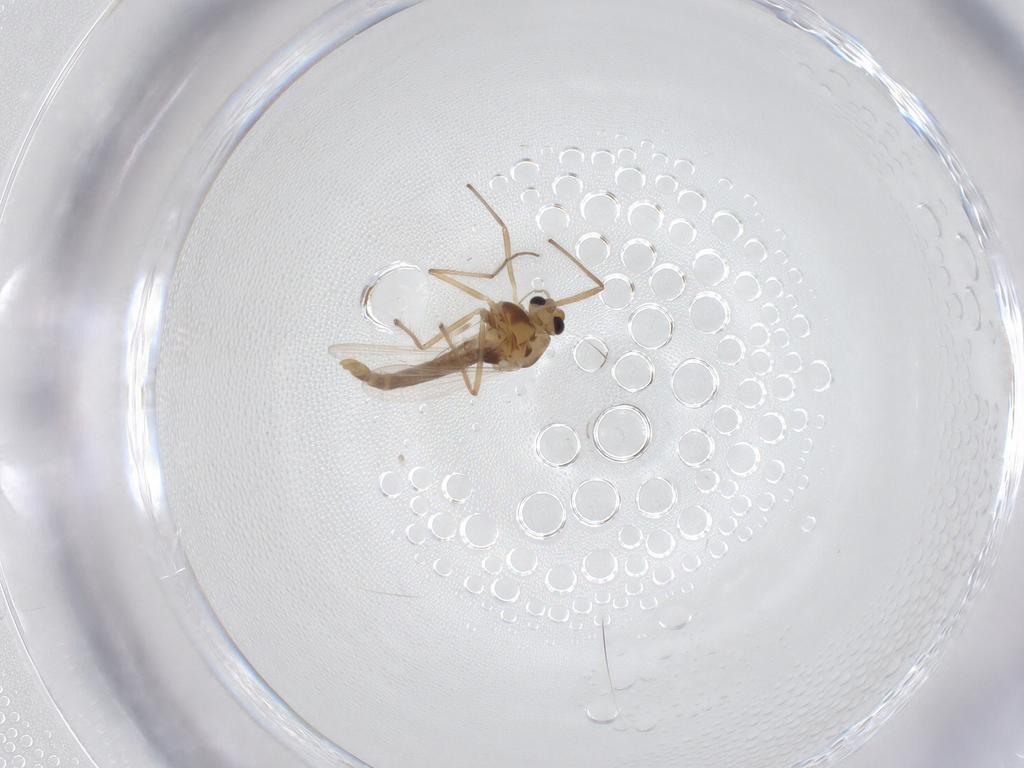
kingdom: Animalia
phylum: Arthropoda
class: Insecta
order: Diptera
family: Chironomidae
